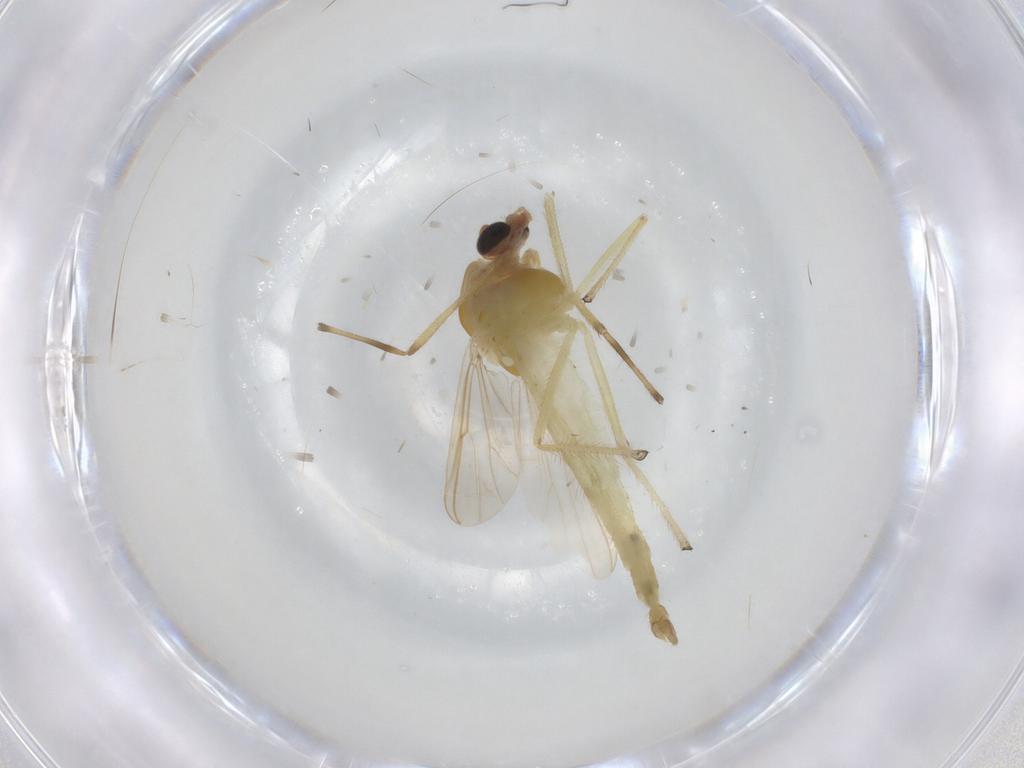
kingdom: Animalia
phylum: Arthropoda
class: Insecta
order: Diptera
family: Chironomidae
